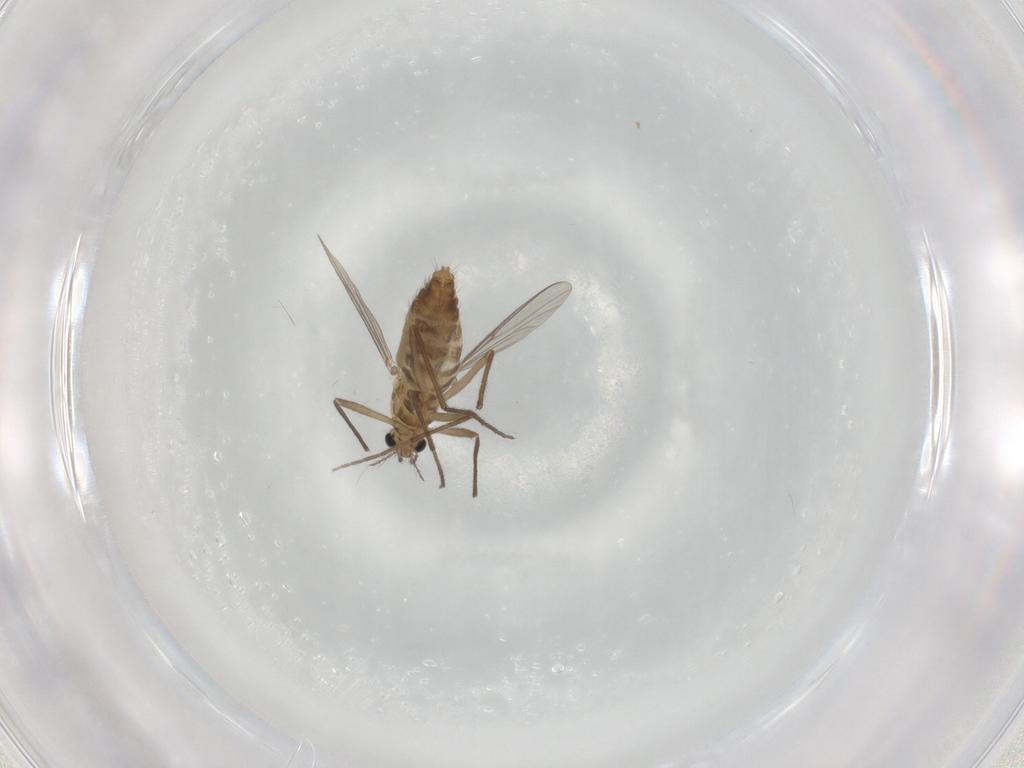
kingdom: Animalia
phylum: Arthropoda
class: Insecta
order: Diptera
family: Chironomidae
